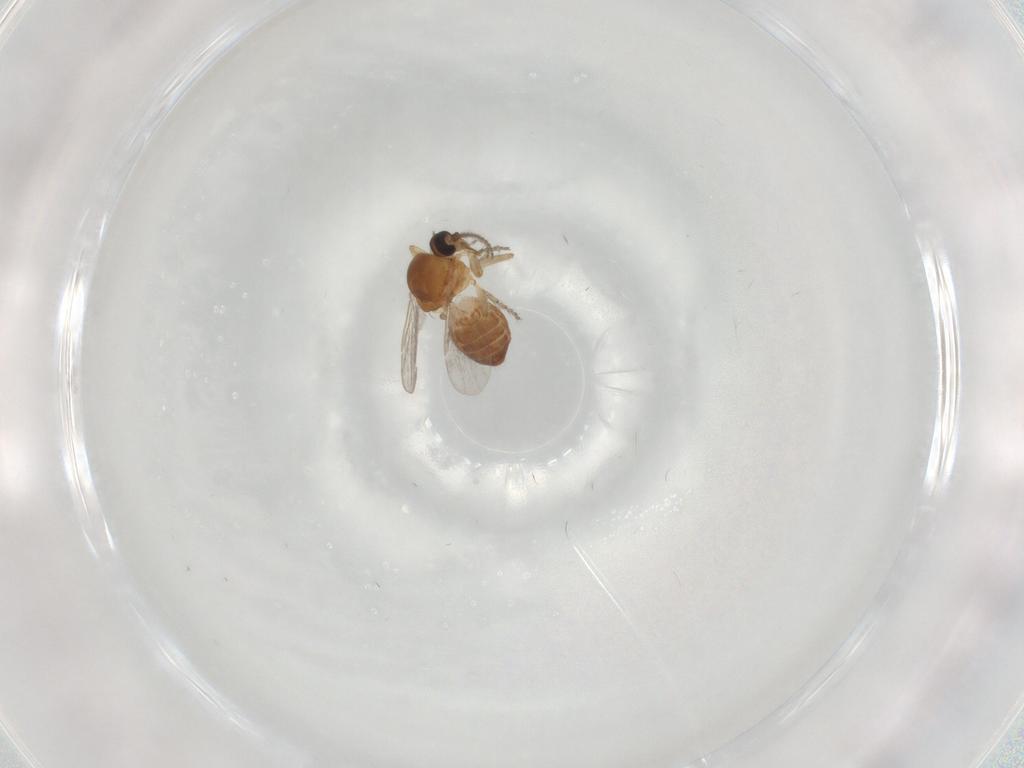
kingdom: Animalia
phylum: Arthropoda
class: Insecta
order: Diptera
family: Ceratopogonidae
